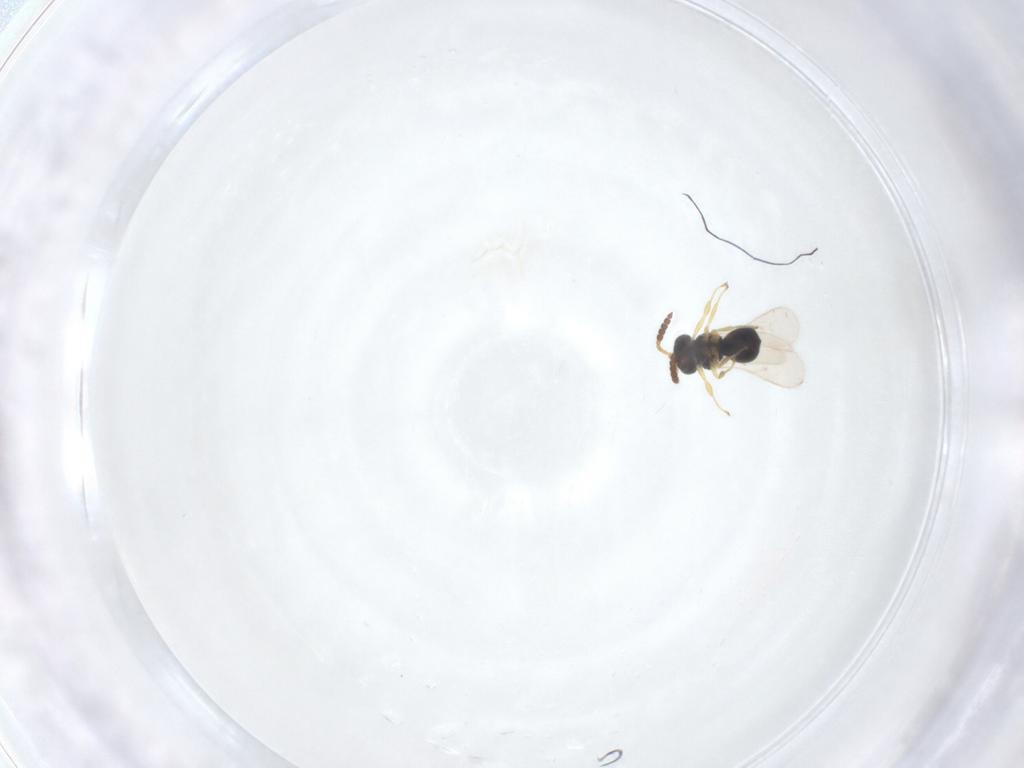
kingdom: Animalia
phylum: Arthropoda
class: Insecta
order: Hymenoptera
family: Scelionidae
